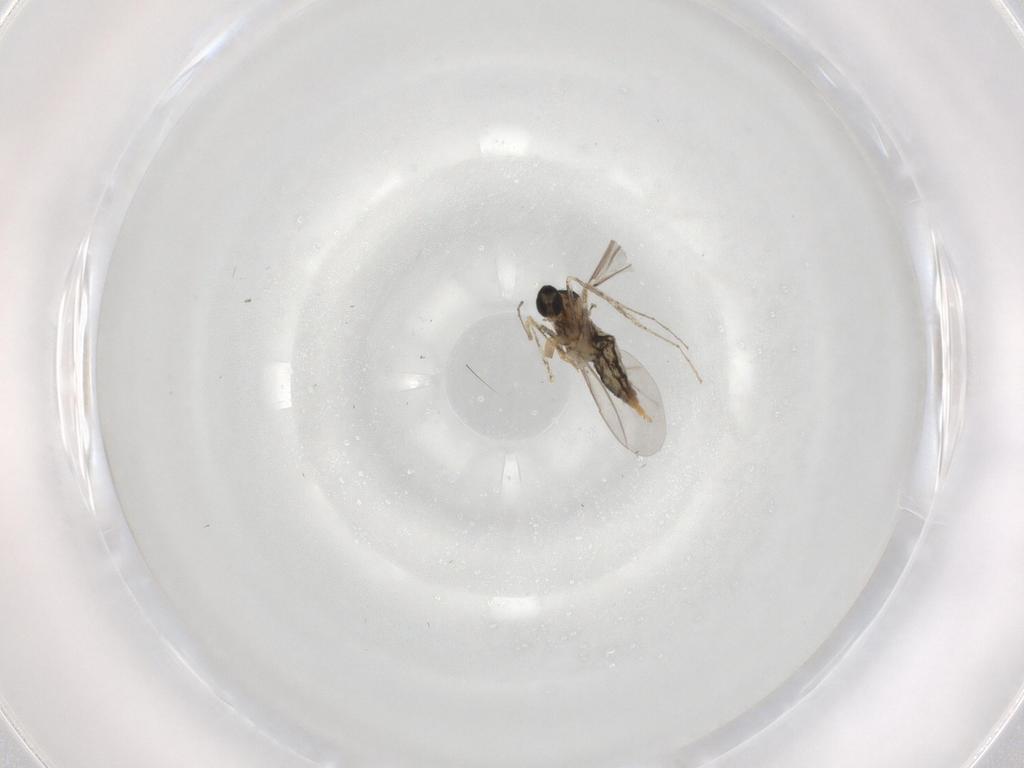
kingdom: Animalia
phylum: Arthropoda
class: Insecta
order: Diptera
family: Cecidomyiidae
